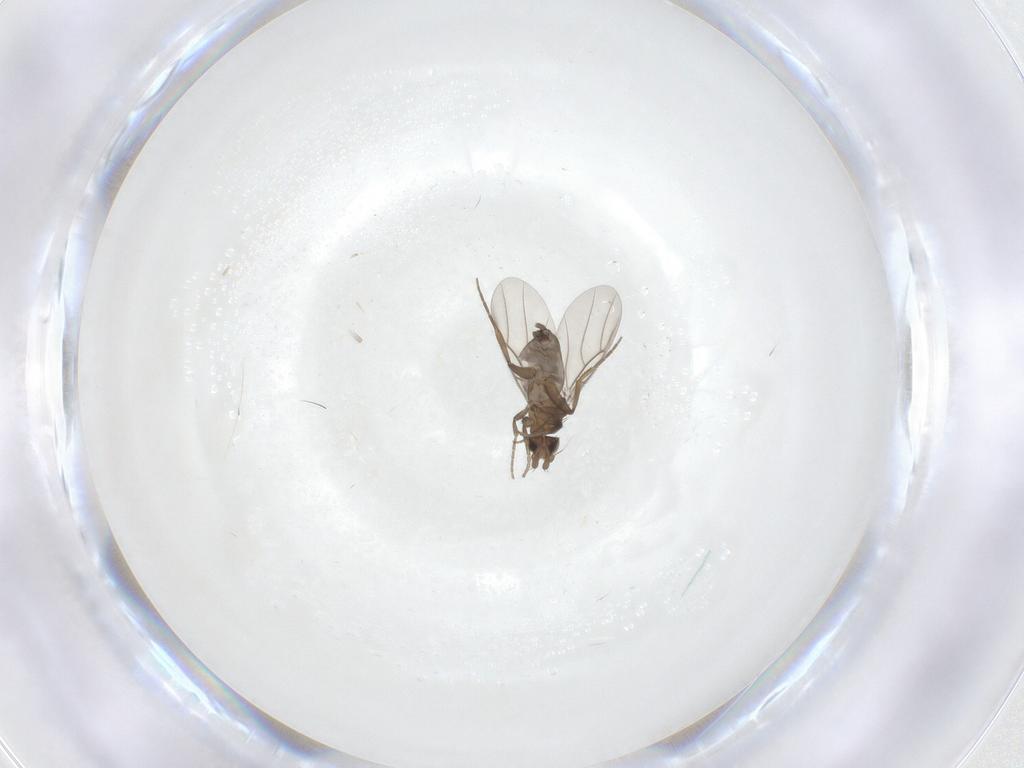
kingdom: Animalia
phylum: Arthropoda
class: Insecta
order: Diptera
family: Phoridae
